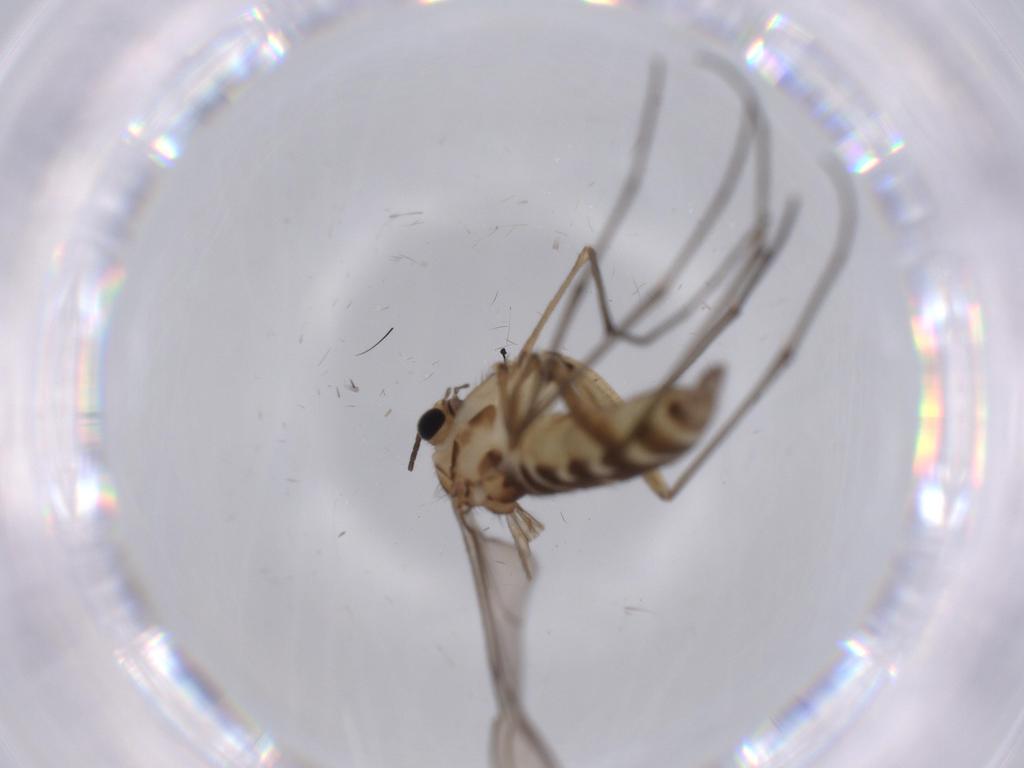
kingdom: Animalia
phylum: Arthropoda
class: Insecta
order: Diptera
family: Sciaridae
